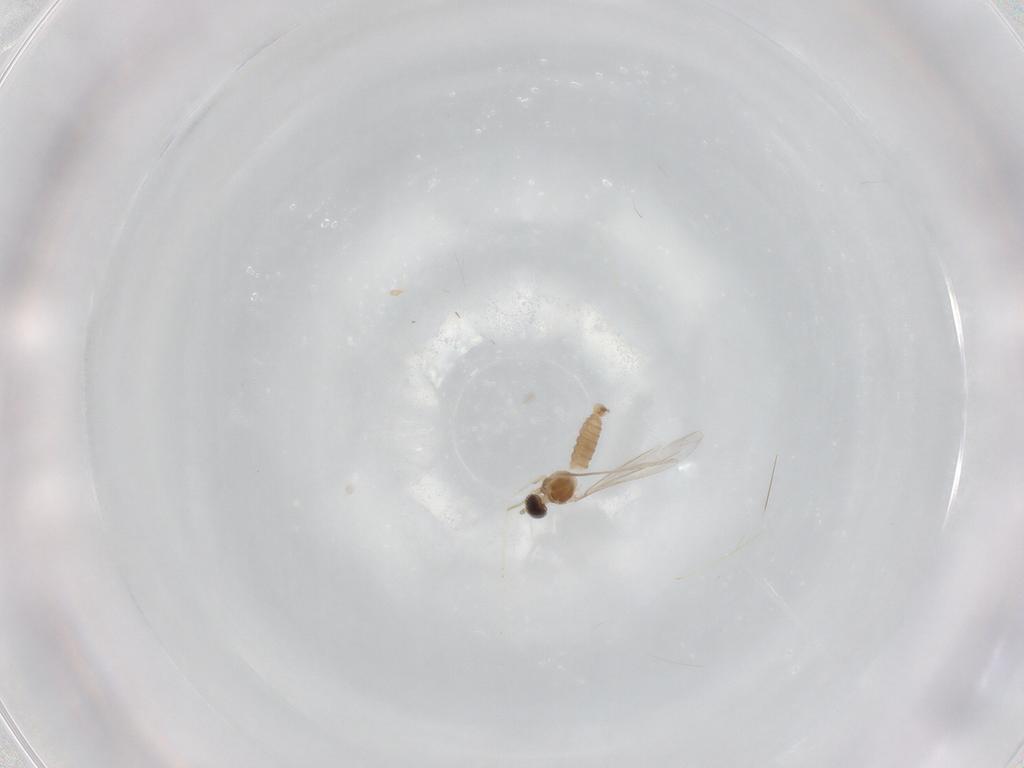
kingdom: Animalia
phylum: Arthropoda
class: Insecta
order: Diptera
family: Cecidomyiidae
